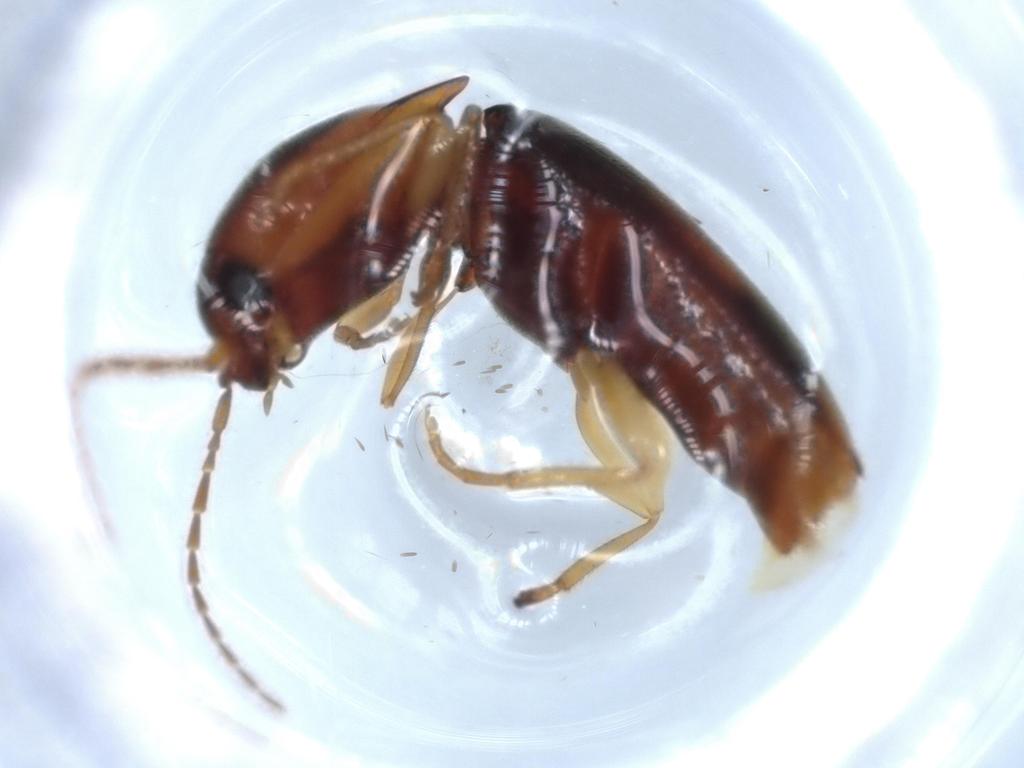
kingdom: Animalia
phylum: Arthropoda
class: Insecta
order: Coleoptera
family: Elateridae
